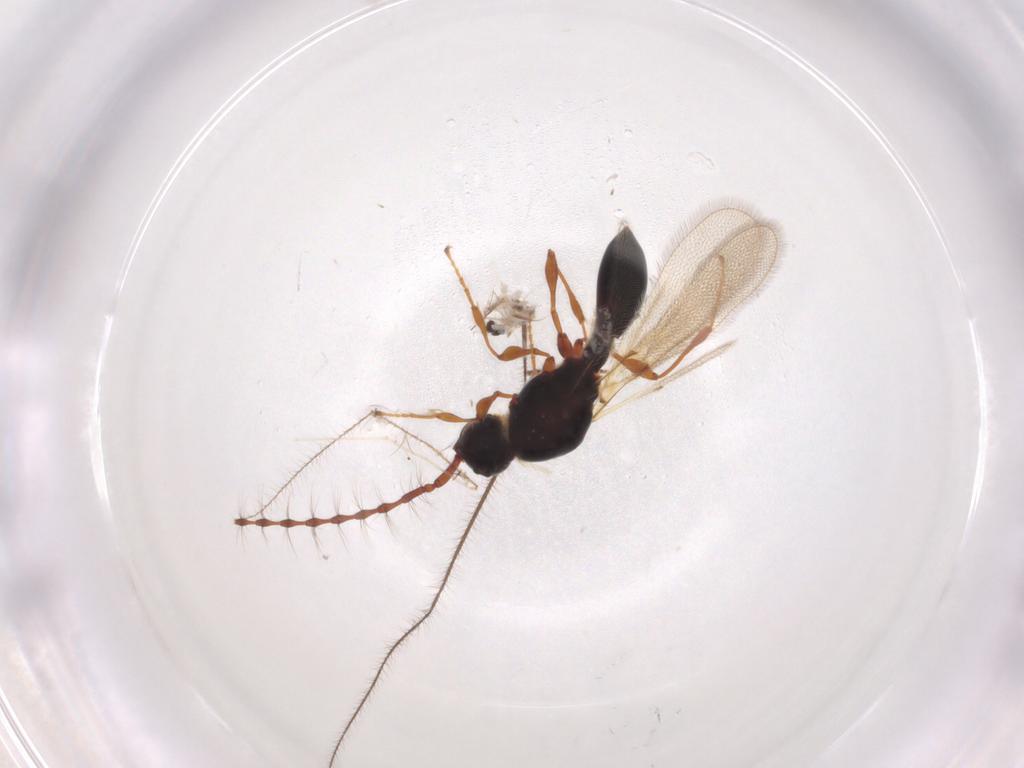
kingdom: Animalia
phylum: Arthropoda
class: Insecta
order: Hymenoptera
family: Diapriidae
